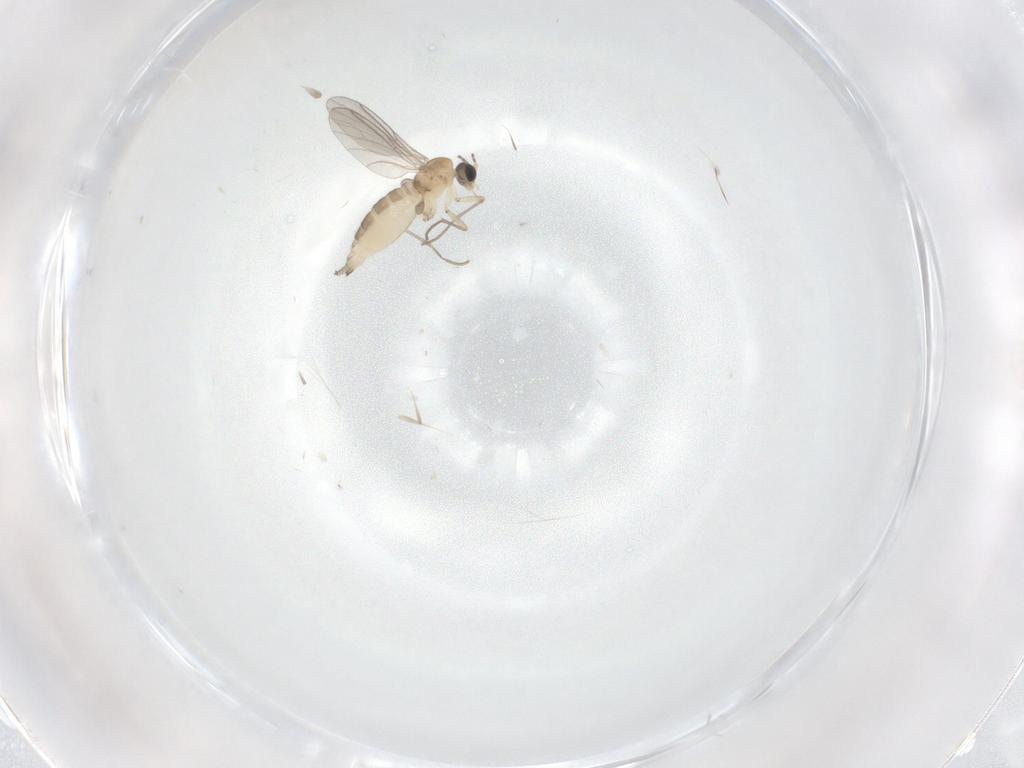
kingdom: Animalia
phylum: Arthropoda
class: Insecta
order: Diptera
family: Sciaridae
